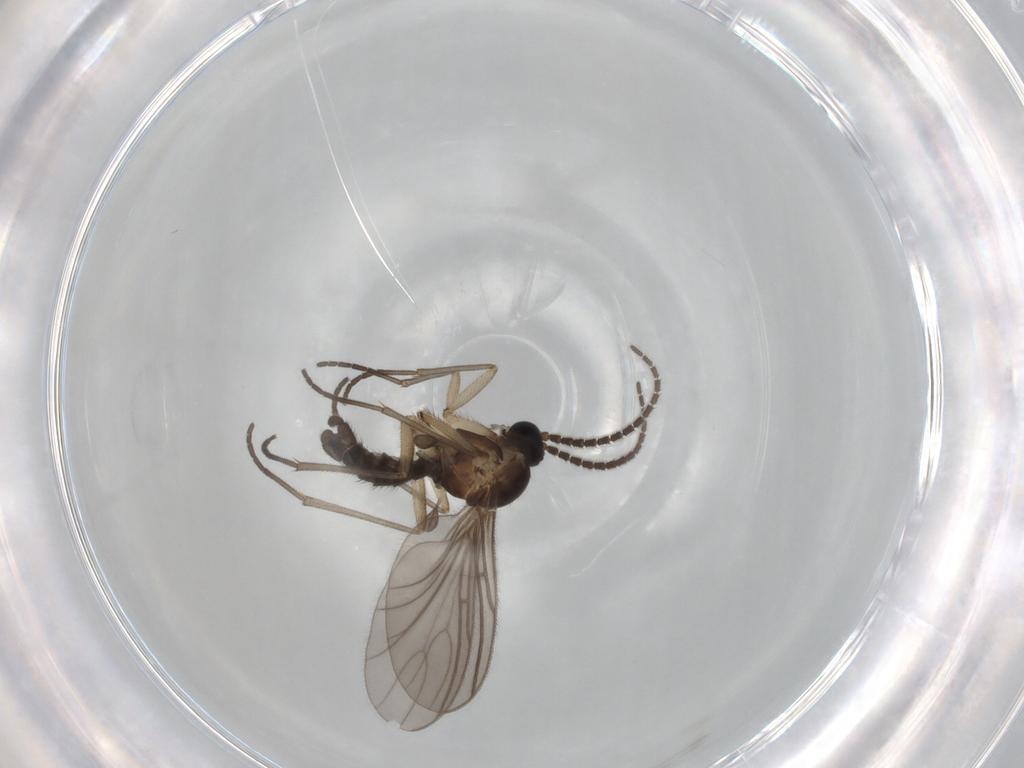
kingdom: Animalia
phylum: Arthropoda
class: Insecta
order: Diptera
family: Sciaridae
